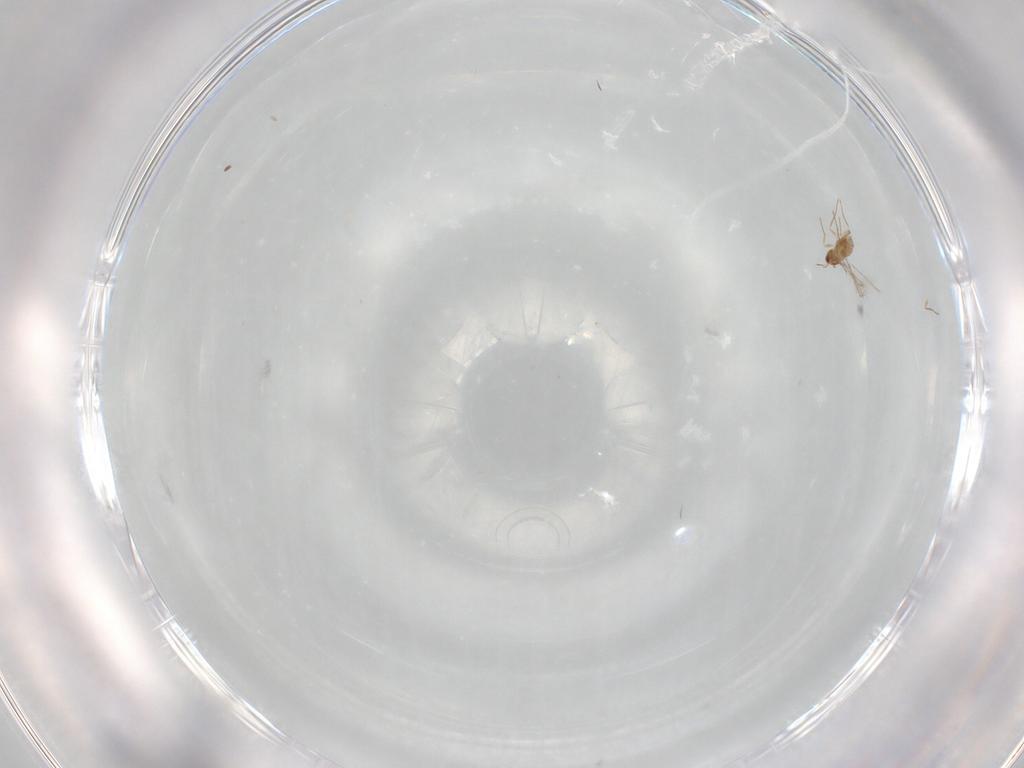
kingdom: Animalia
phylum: Arthropoda
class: Insecta
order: Hymenoptera
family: Mymaridae
